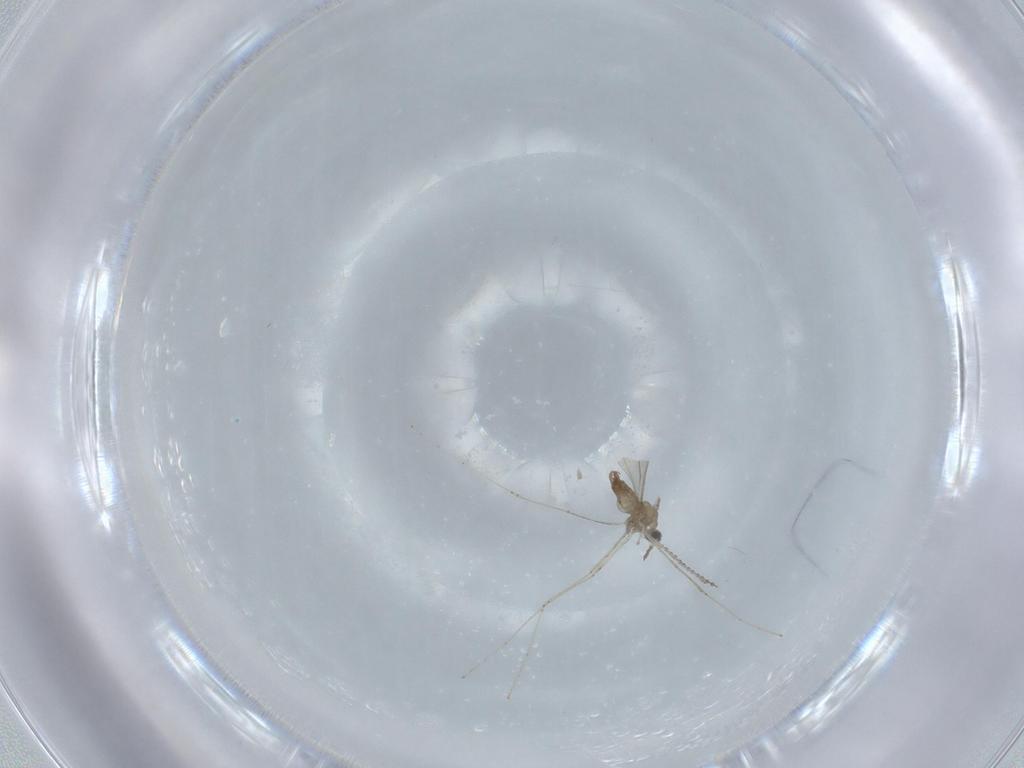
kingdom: Animalia
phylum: Arthropoda
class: Insecta
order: Diptera
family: Cecidomyiidae
